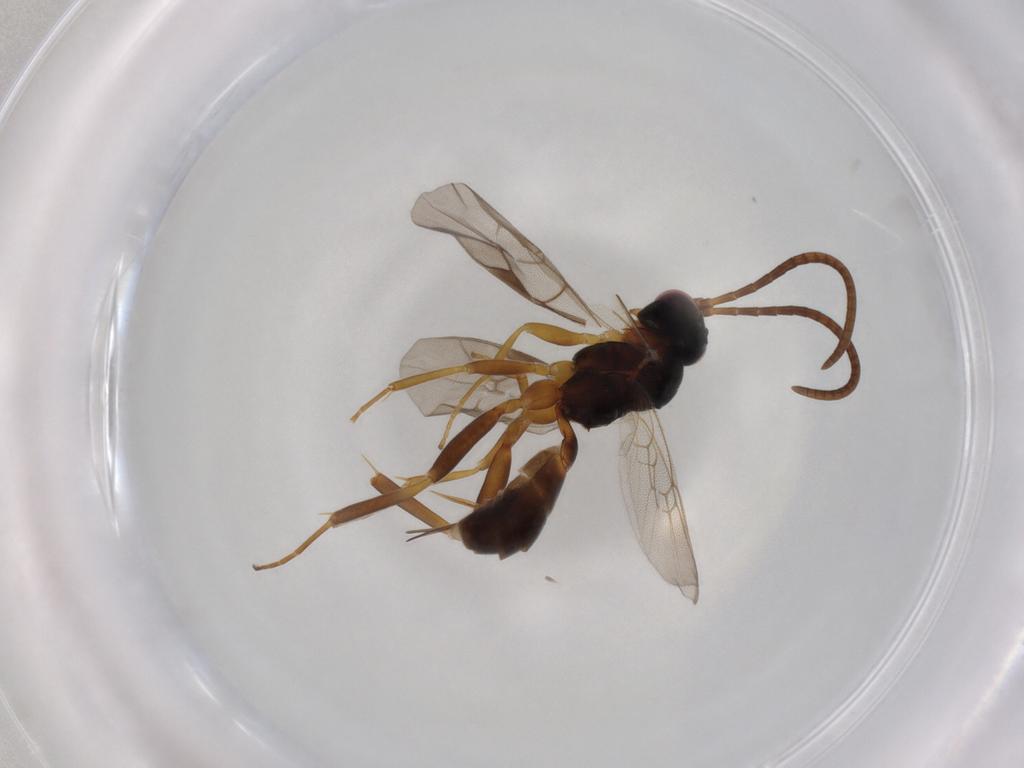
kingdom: Animalia
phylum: Arthropoda
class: Insecta
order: Hymenoptera
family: Ichneumonidae
